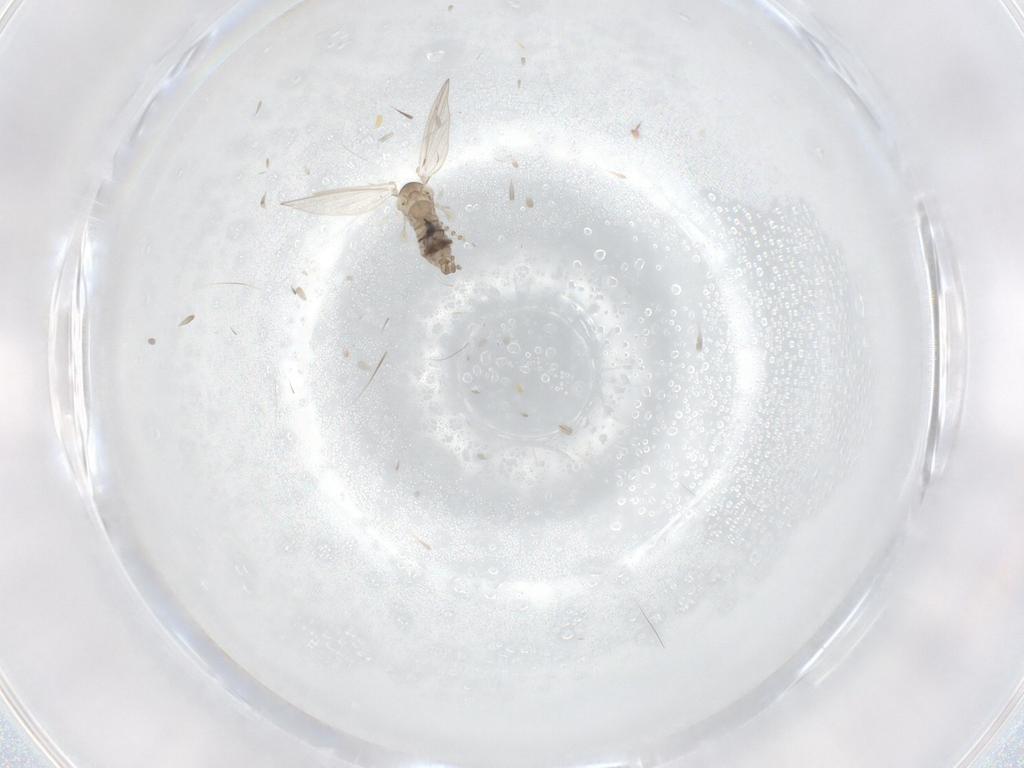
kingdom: Animalia
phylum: Arthropoda
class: Insecta
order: Diptera
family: Psychodidae
